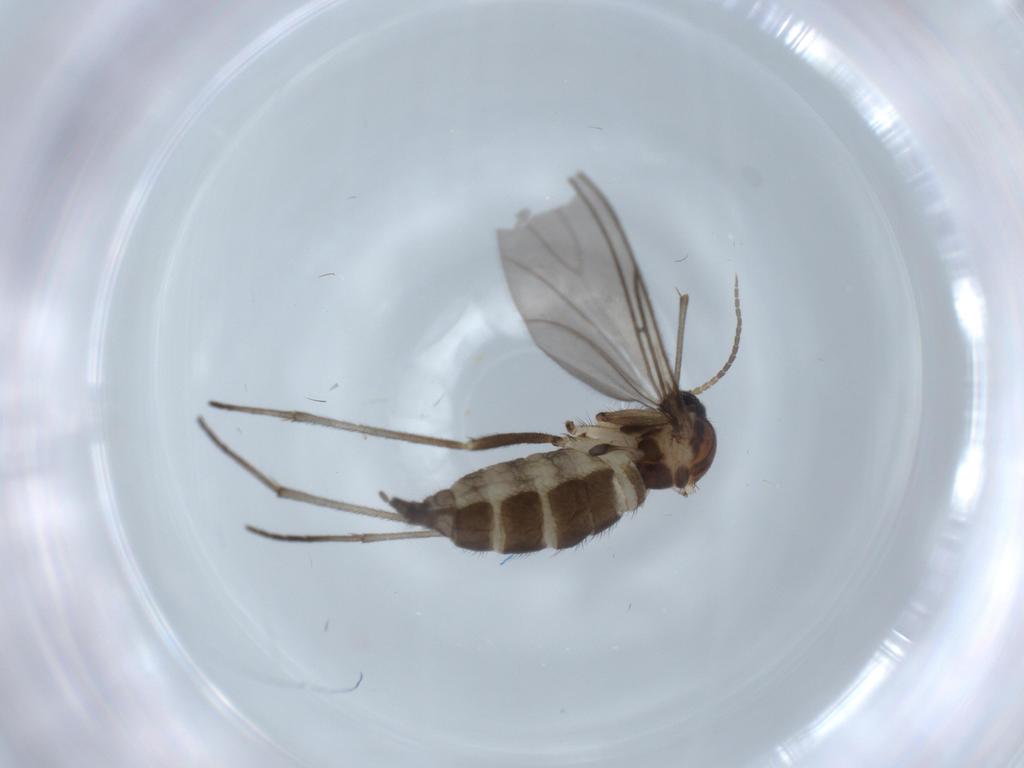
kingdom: Animalia
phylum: Arthropoda
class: Insecta
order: Diptera
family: Sciaridae
